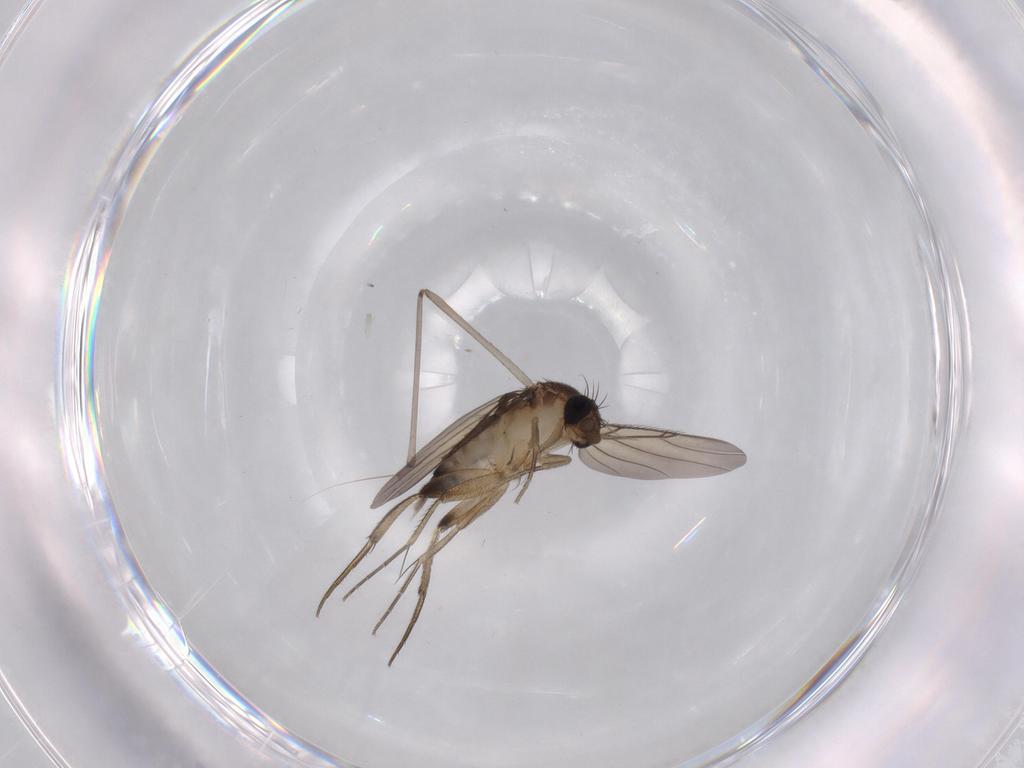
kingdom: Animalia
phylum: Arthropoda
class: Insecta
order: Diptera
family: Phoridae
